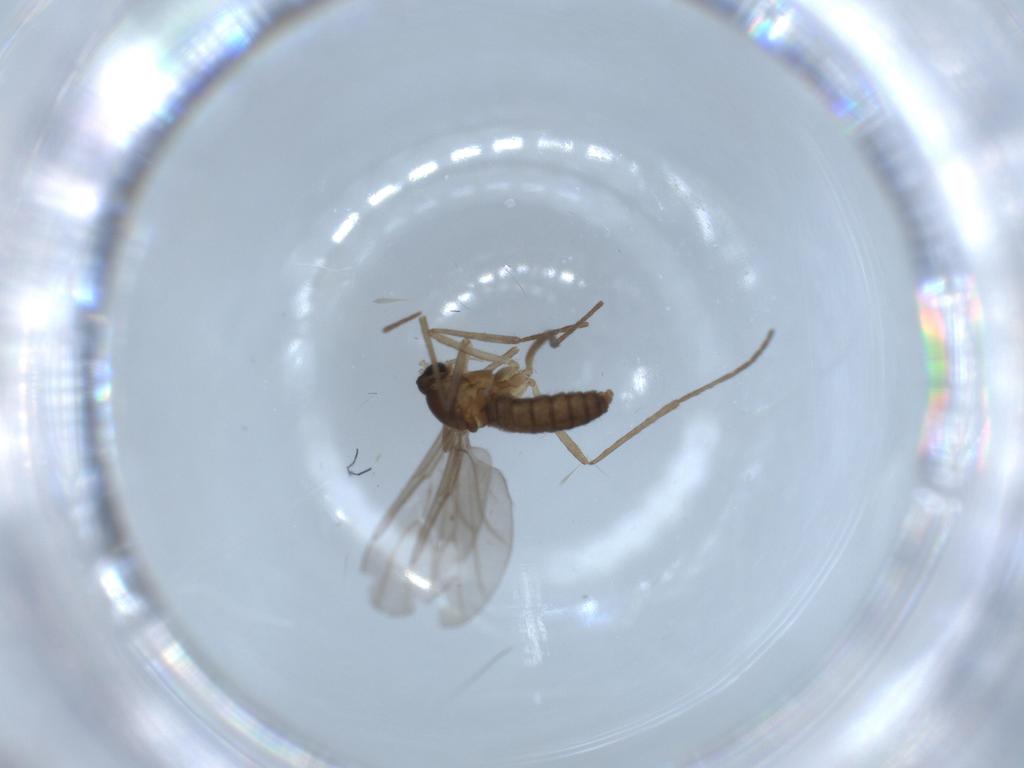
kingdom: Animalia
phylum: Arthropoda
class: Insecta
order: Diptera
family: Cecidomyiidae
